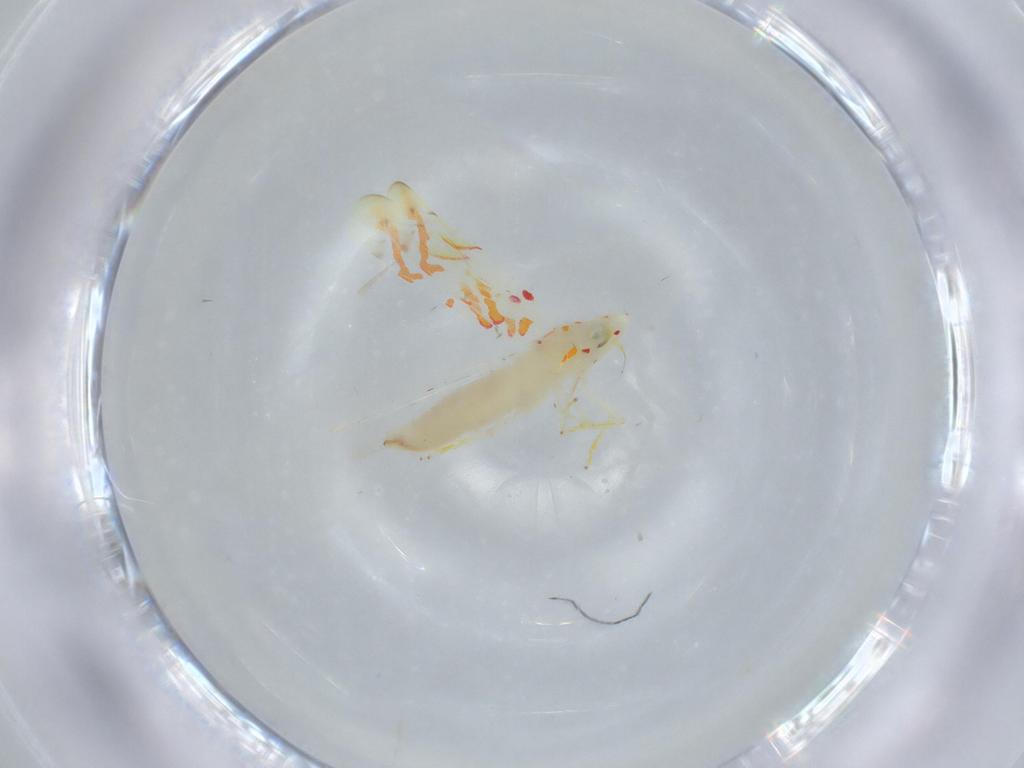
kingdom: Animalia
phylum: Arthropoda
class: Insecta
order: Hemiptera
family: Cicadellidae
